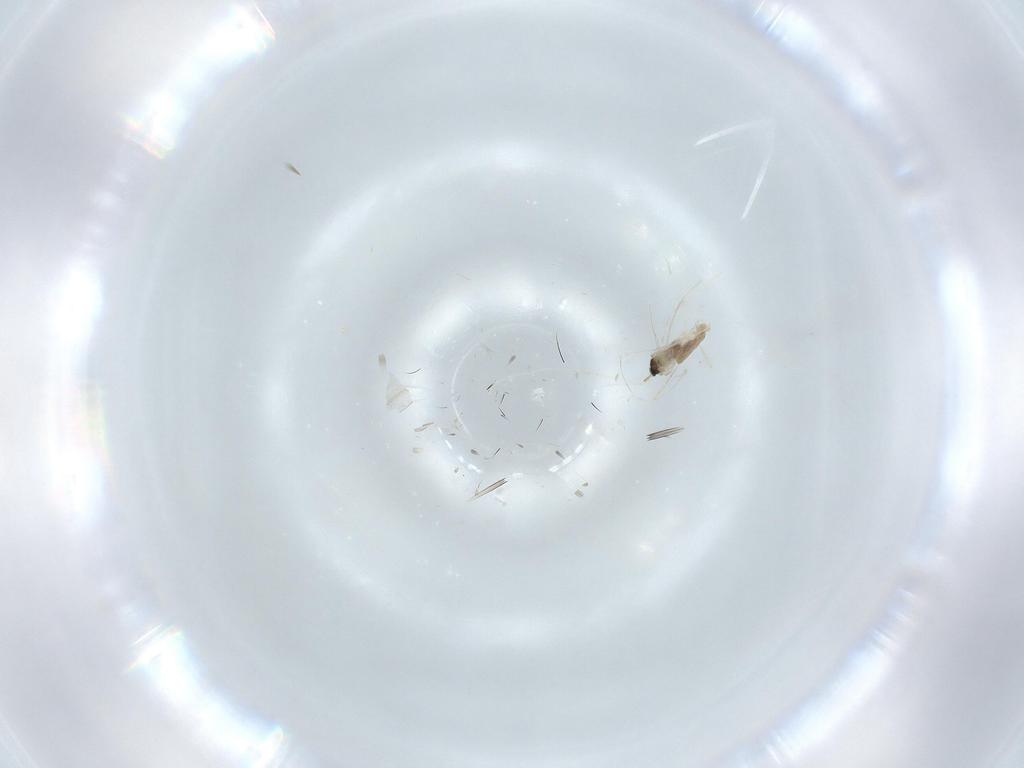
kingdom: Animalia
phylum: Arthropoda
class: Insecta
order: Diptera
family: Cecidomyiidae
